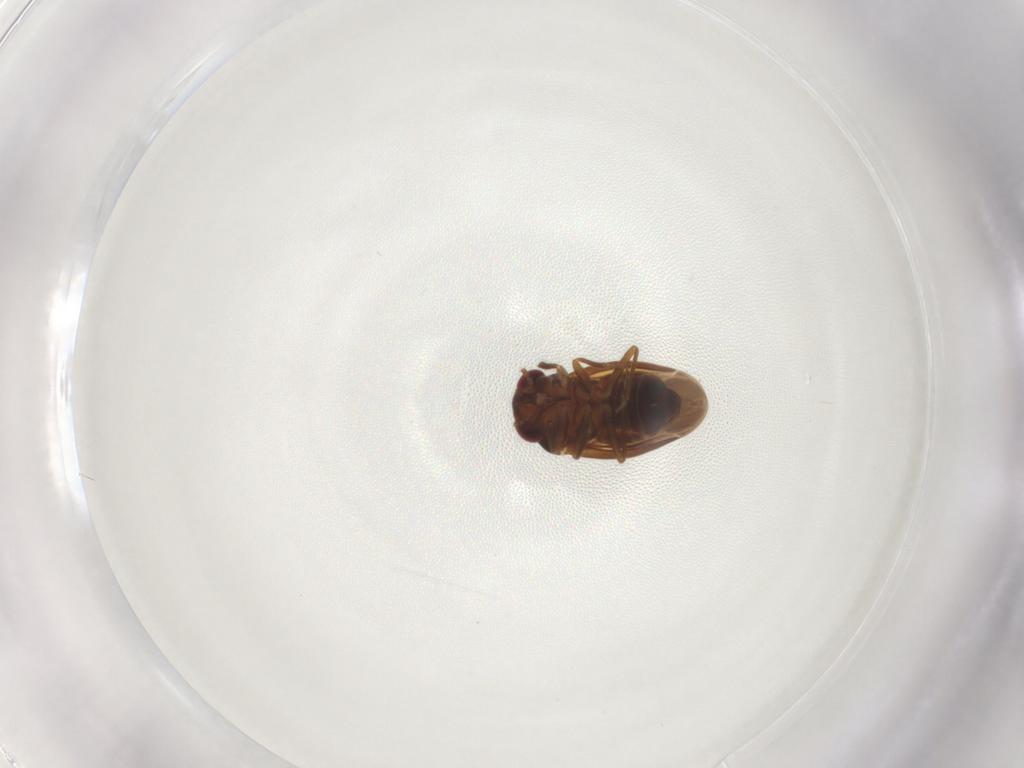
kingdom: Animalia
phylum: Arthropoda
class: Insecta
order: Hemiptera
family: Schizopteridae
